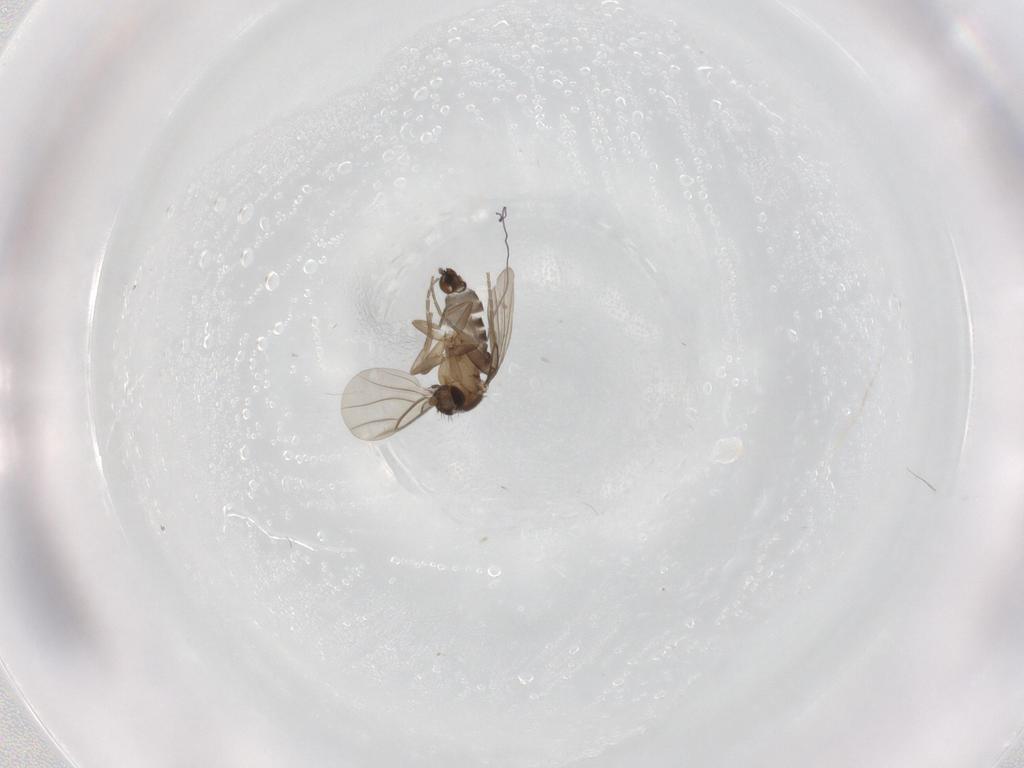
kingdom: Animalia
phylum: Arthropoda
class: Insecta
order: Diptera
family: Phoridae
